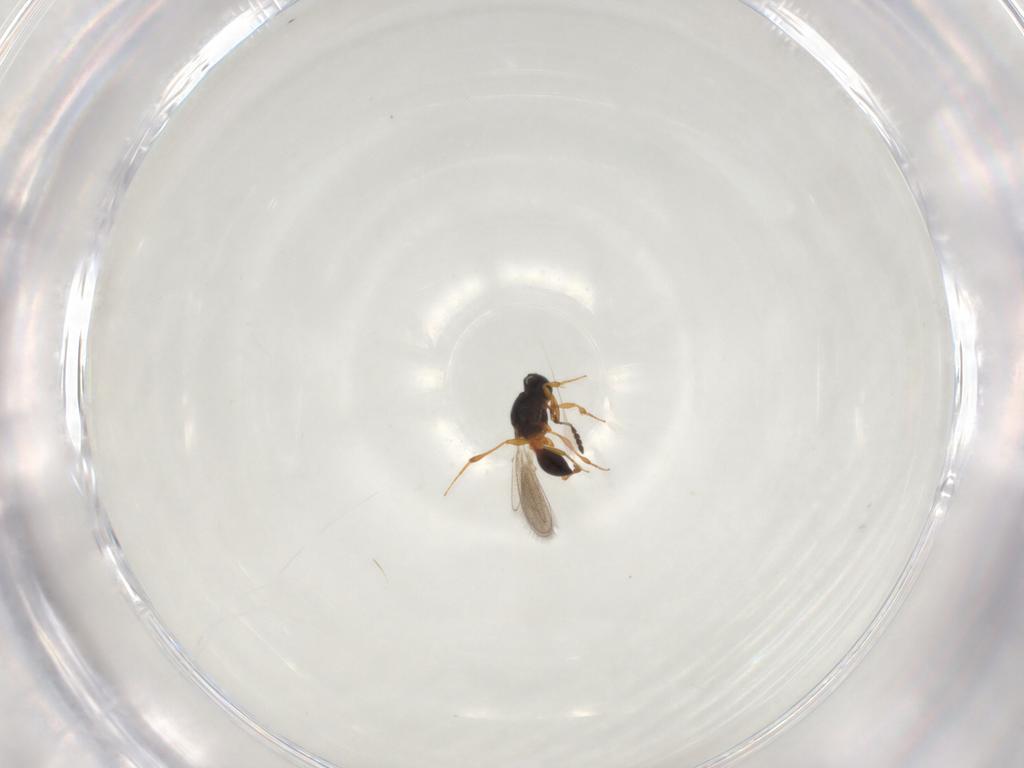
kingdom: Animalia
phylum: Arthropoda
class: Insecta
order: Hymenoptera
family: Platygastridae
